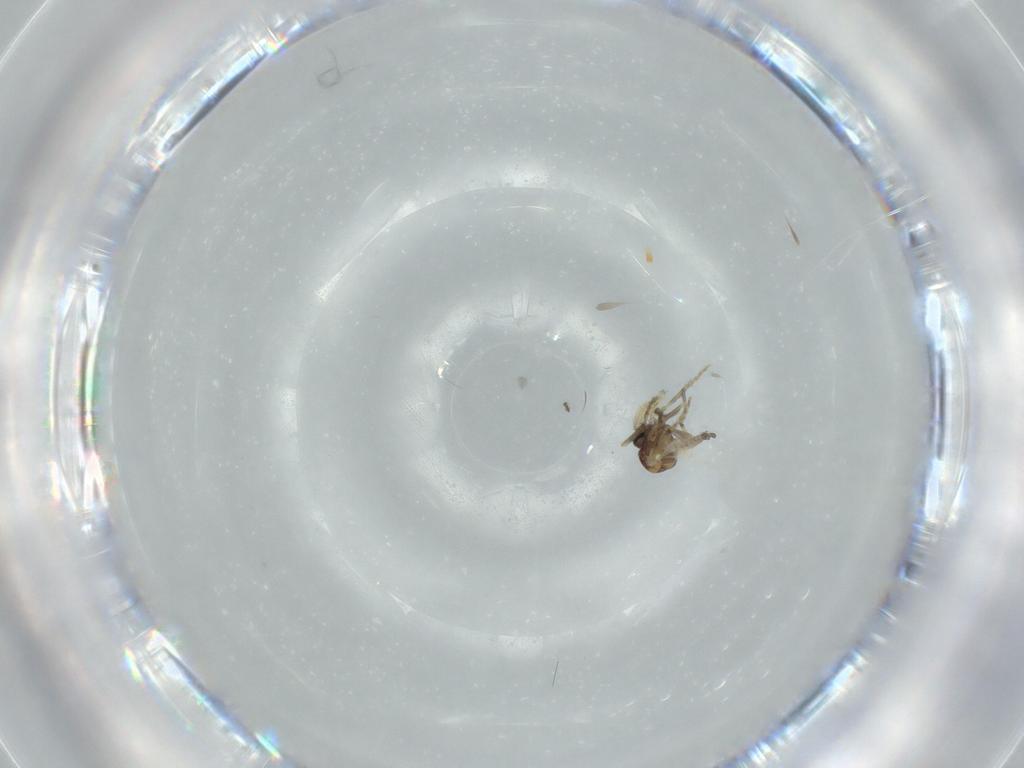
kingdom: Animalia
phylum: Arthropoda
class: Insecta
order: Diptera
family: Ceratopogonidae
